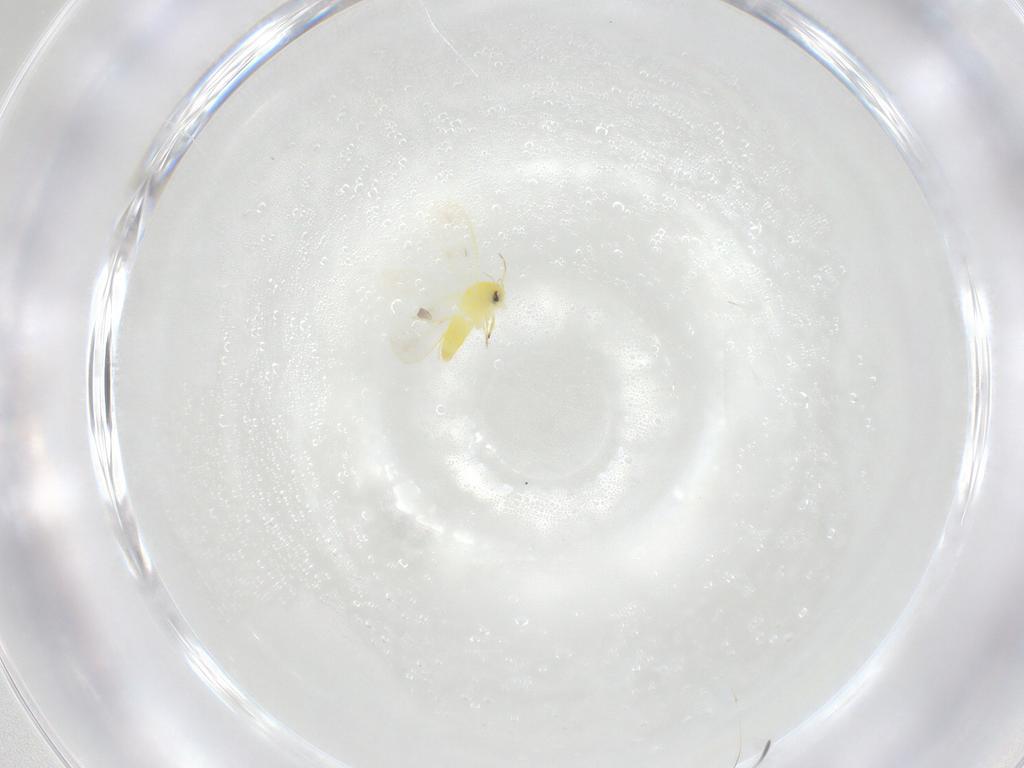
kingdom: Animalia
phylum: Arthropoda
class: Insecta
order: Hemiptera
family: Aleyrodidae
